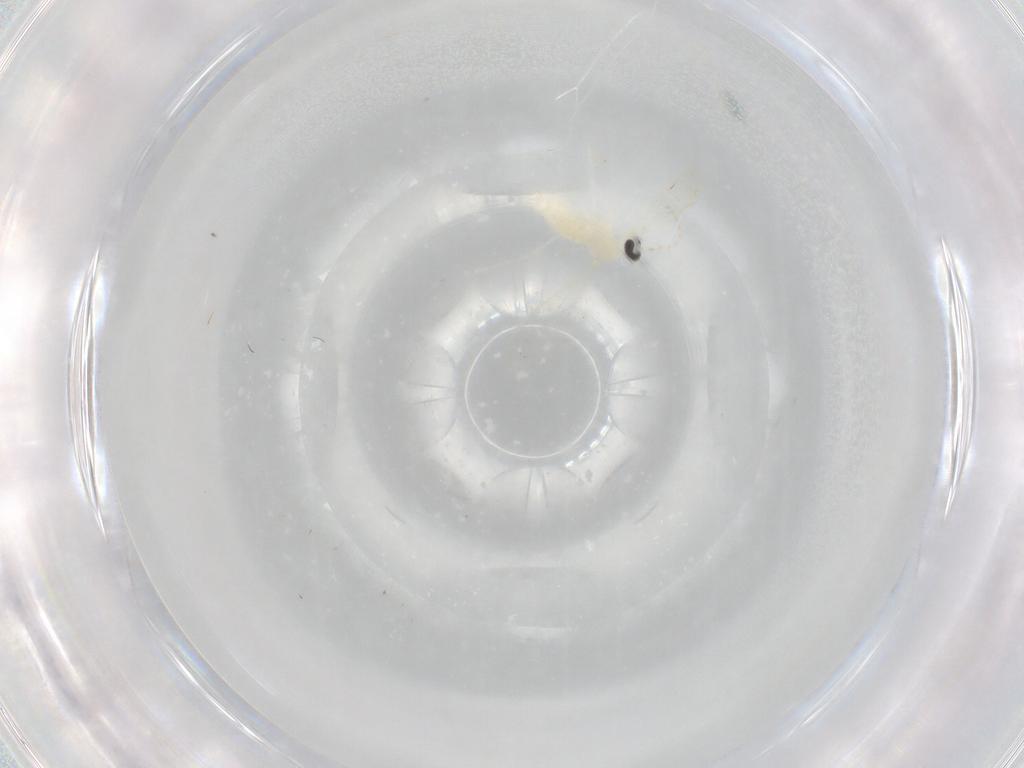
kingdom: Animalia
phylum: Arthropoda
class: Insecta
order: Diptera
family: Cecidomyiidae
